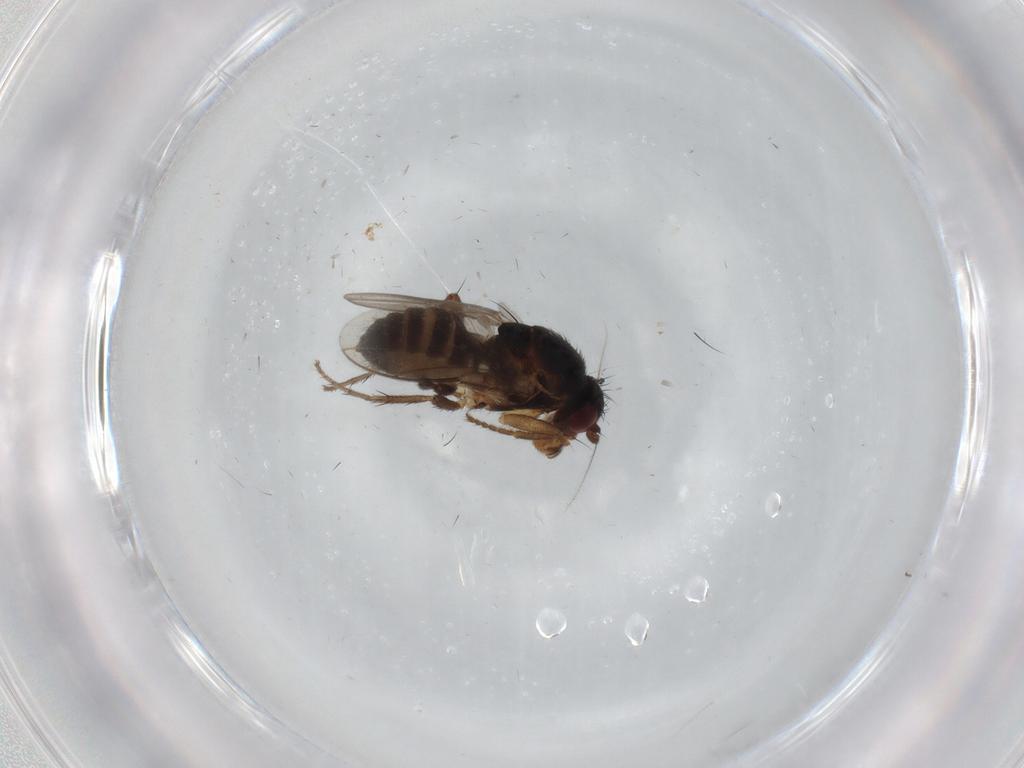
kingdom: Animalia
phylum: Arthropoda
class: Insecta
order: Diptera
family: Sphaeroceridae
